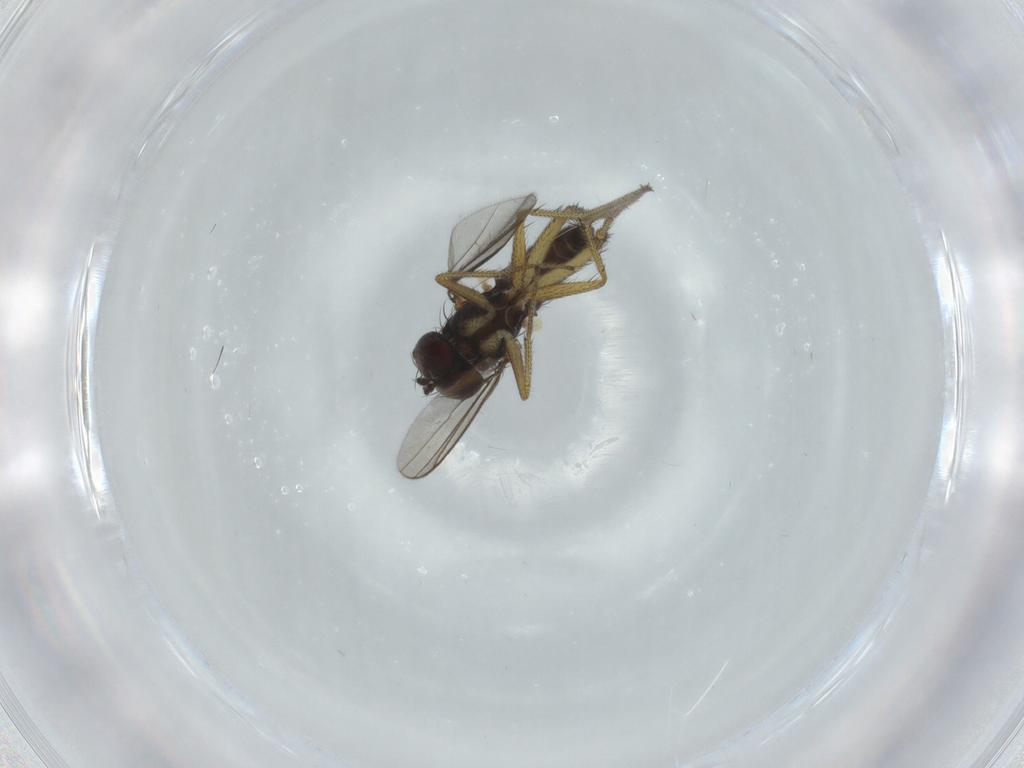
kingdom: Animalia
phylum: Arthropoda
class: Insecta
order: Diptera
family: Dolichopodidae
